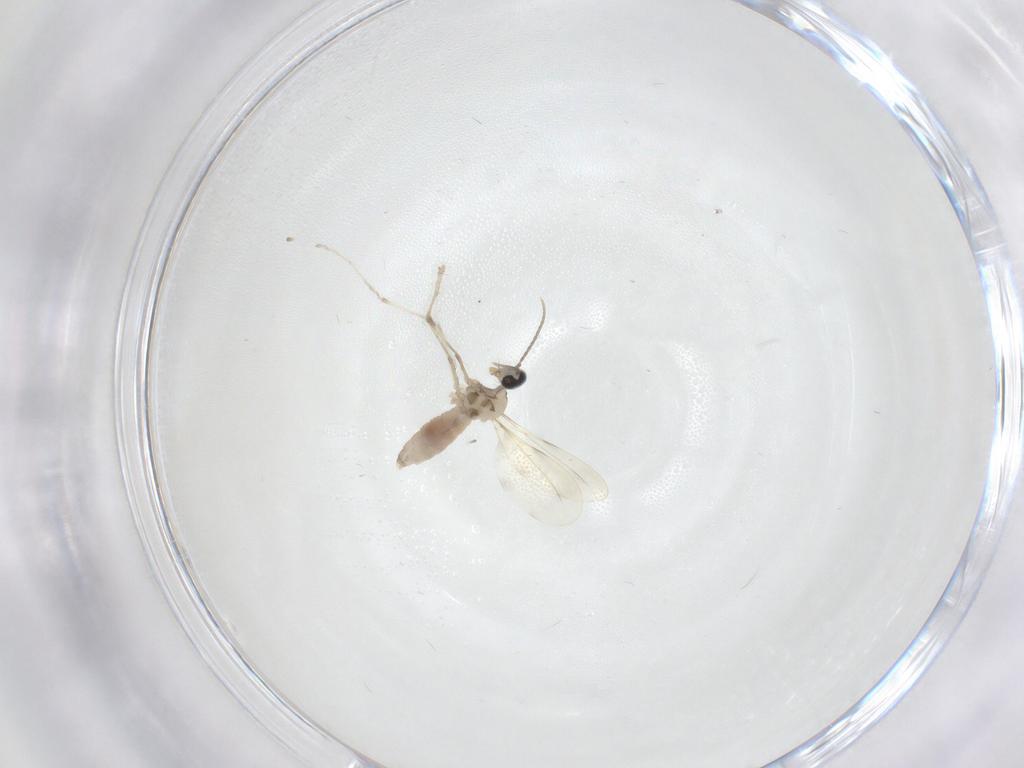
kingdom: Animalia
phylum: Arthropoda
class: Insecta
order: Diptera
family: Cecidomyiidae
